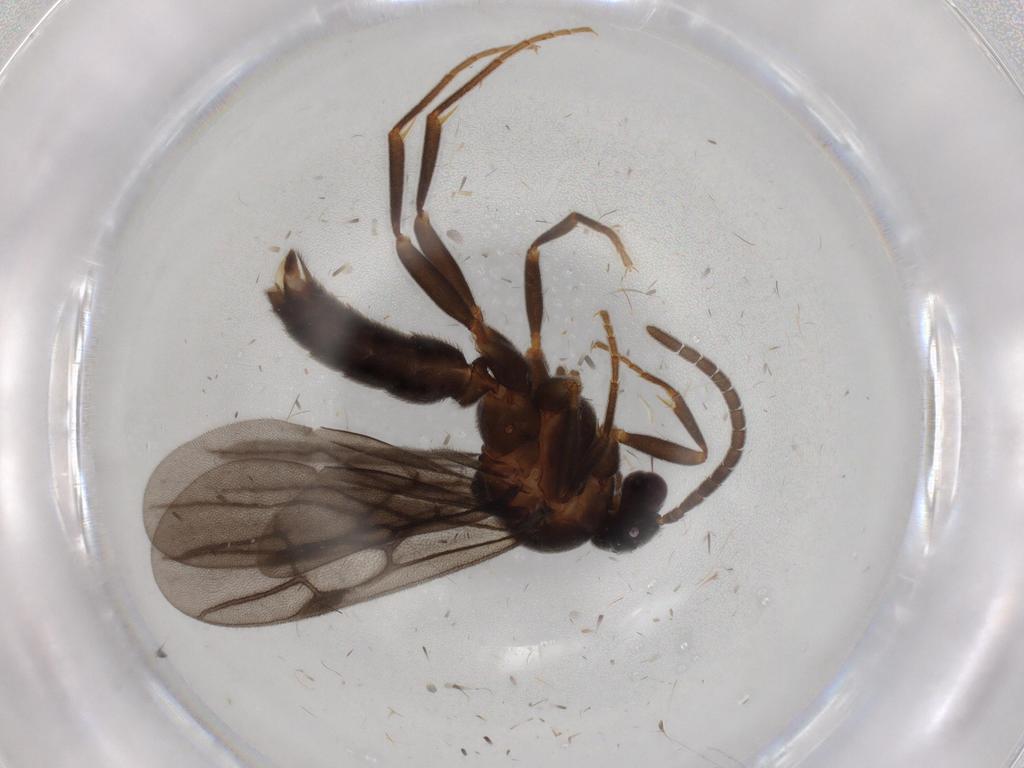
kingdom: Animalia
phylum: Arthropoda
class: Insecta
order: Hymenoptera
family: Formicidae
